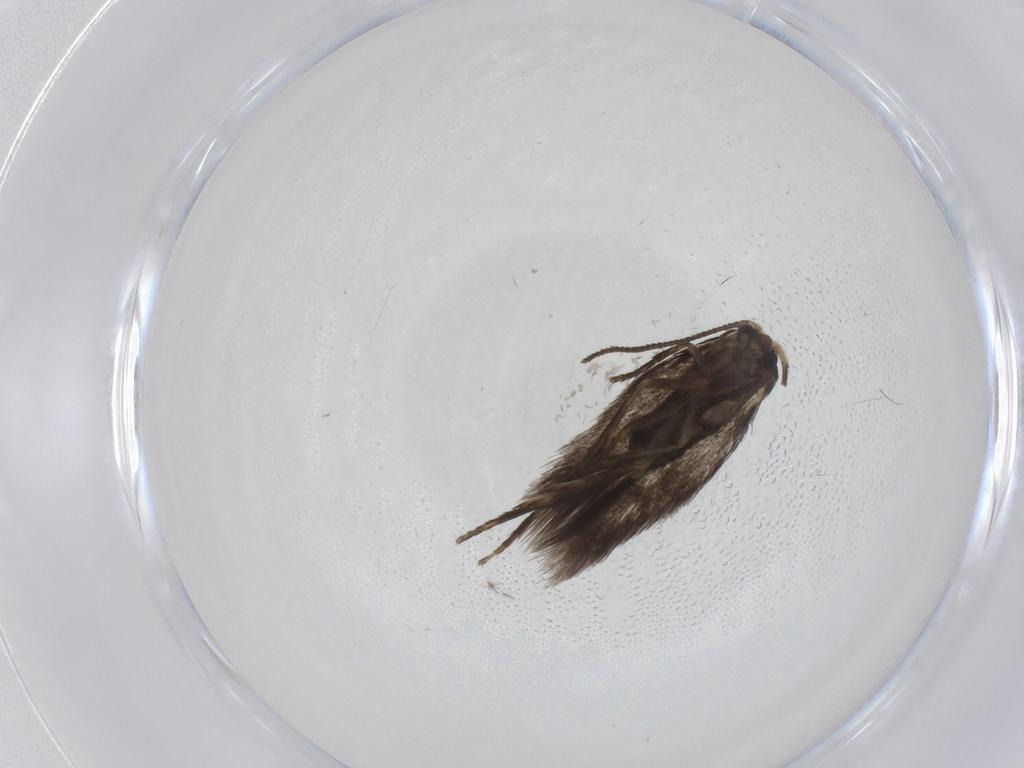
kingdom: Animalia
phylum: Arthropoda
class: Insecta
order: Lepidoptera
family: Nepticulidae
